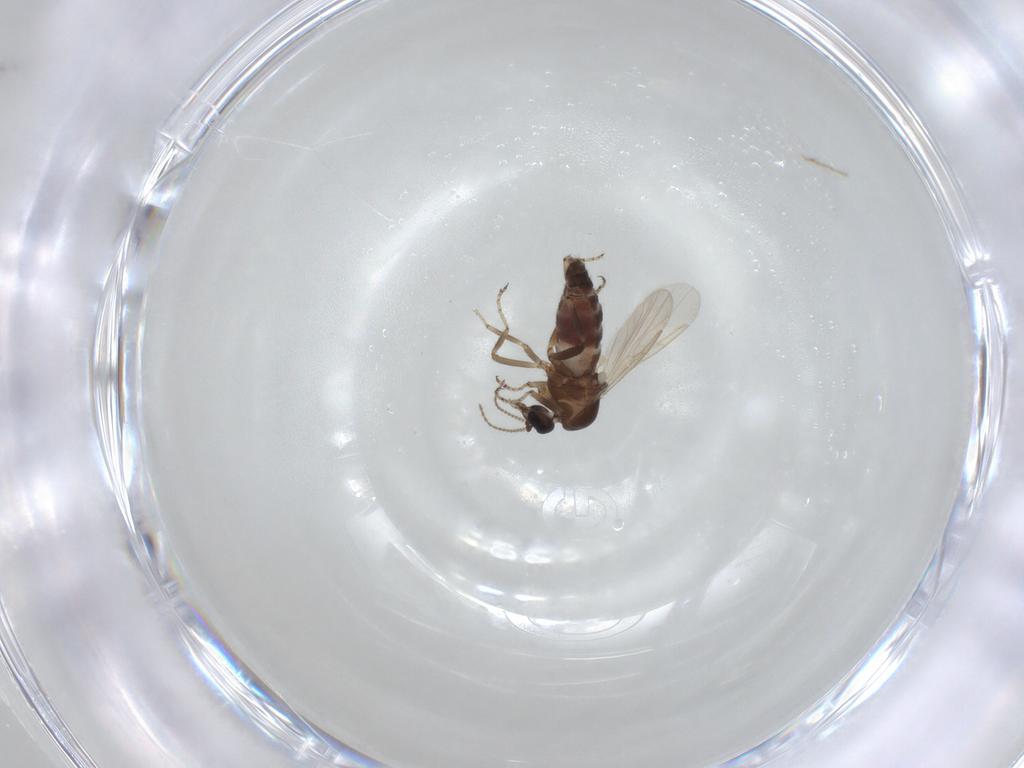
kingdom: Animalia
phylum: Arthropoda
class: Insecta
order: Diptera
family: Ceratopogonidae
